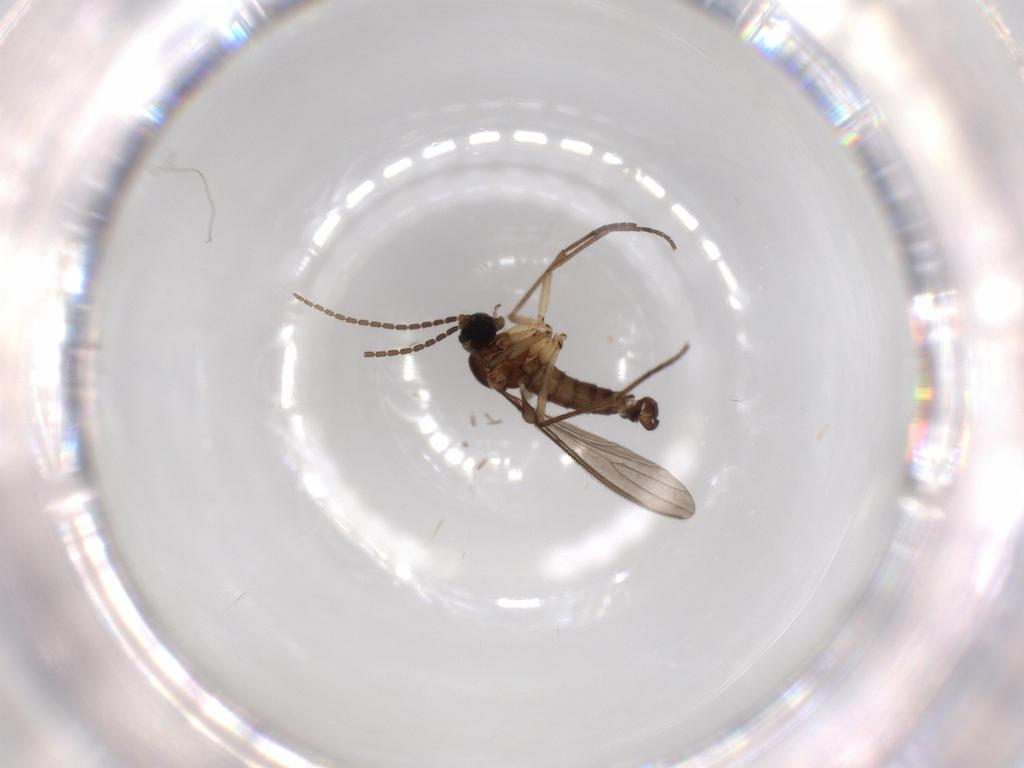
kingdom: Animalia
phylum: Arthropoda
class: Insecta
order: Diptera
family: Sciaridae
